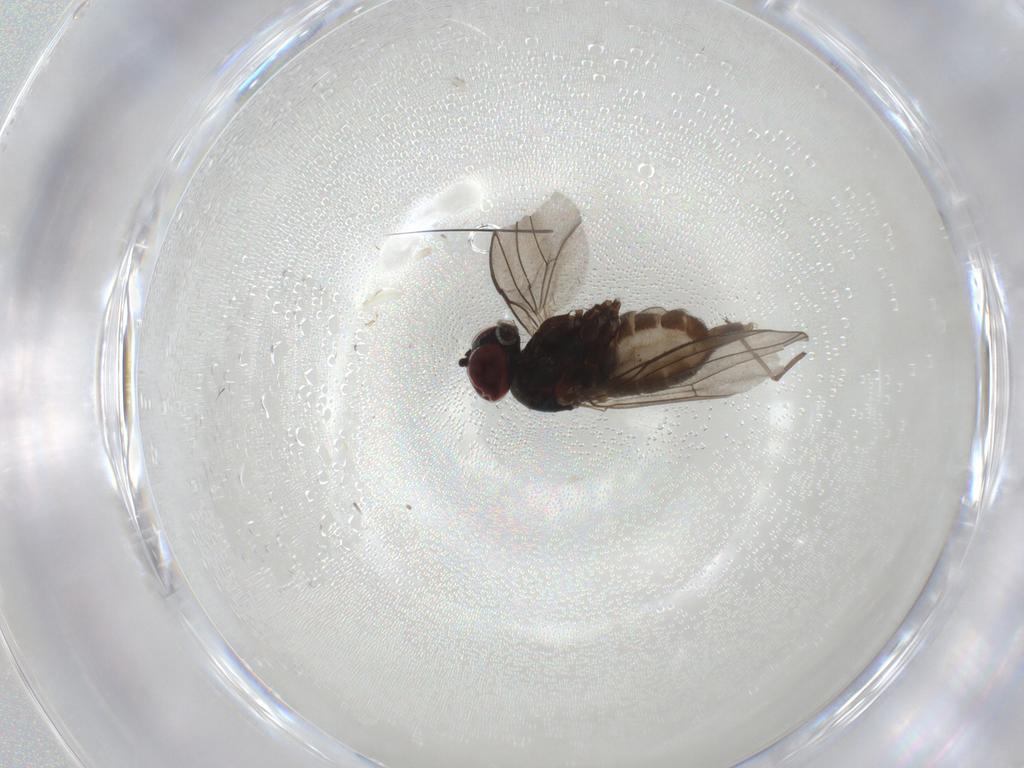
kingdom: Animalia
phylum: Arthropoda
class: Insecta
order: Diptera
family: Dolichopodidae
